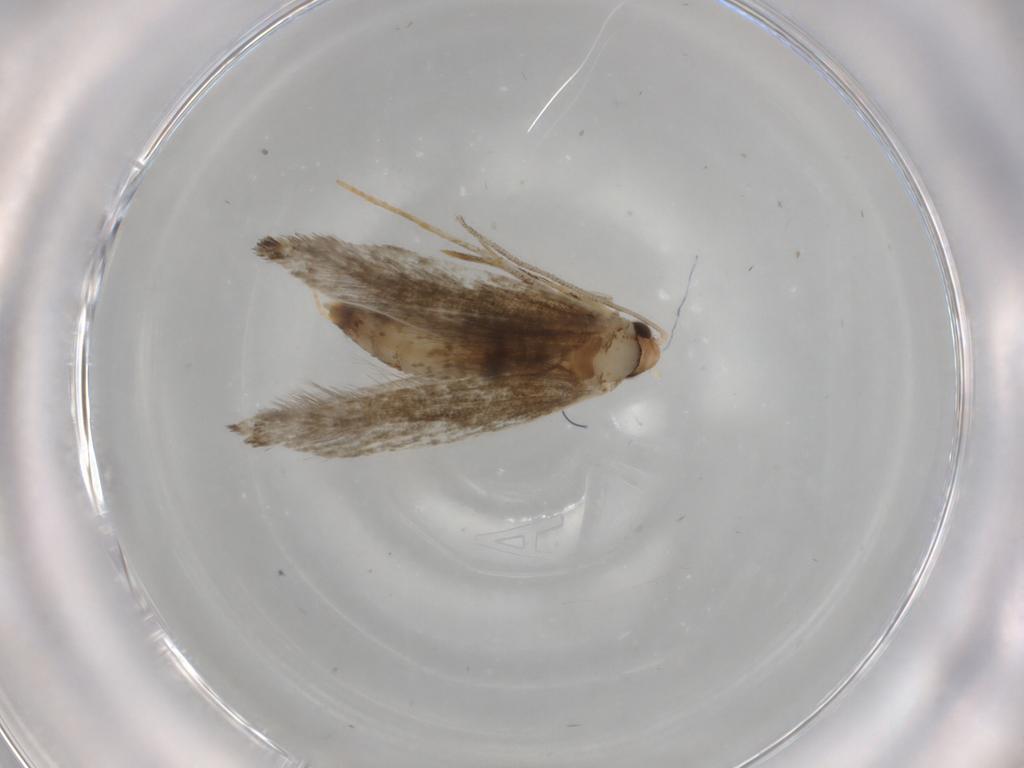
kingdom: Animalia
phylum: Arthropoda
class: Insecta
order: Lepidoptera
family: Meessiidae
